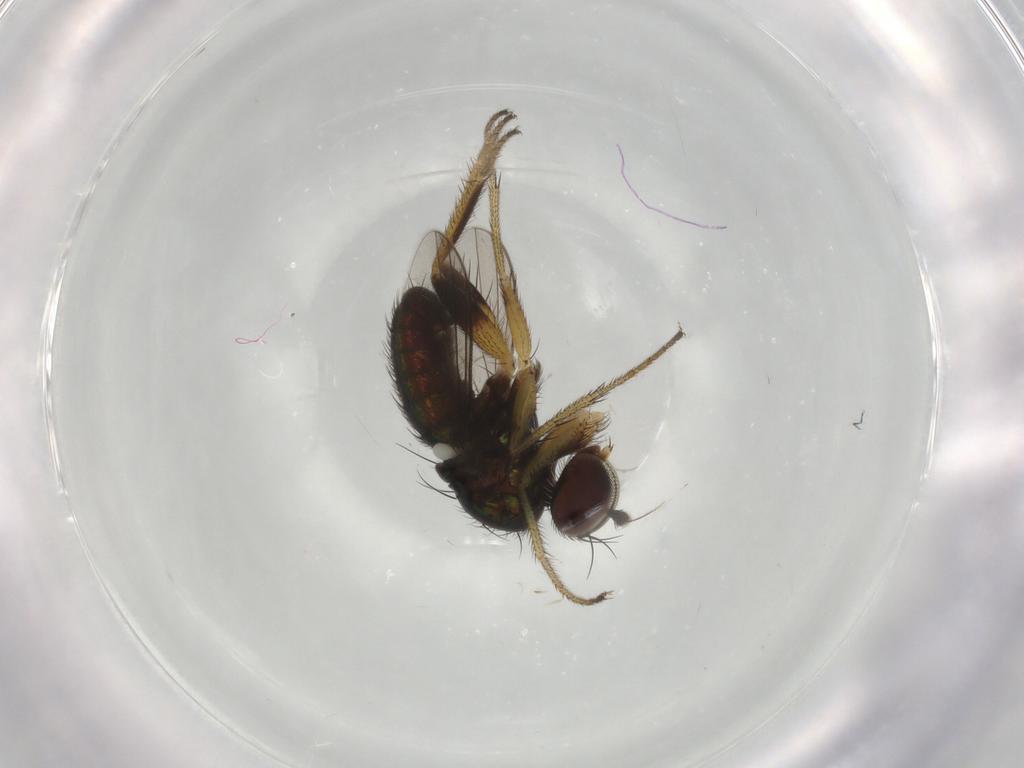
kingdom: Animalia
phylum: Arthropoda
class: Insecta
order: Diptera
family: Dolichopodidae
